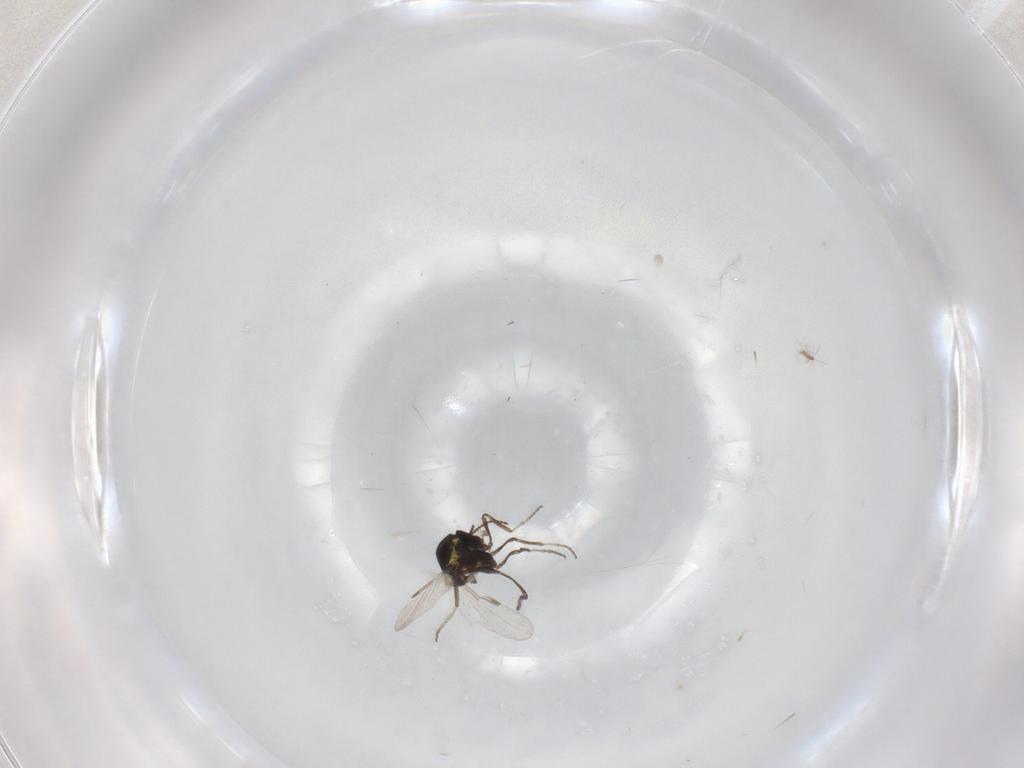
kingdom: Animalia
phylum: Arthropoda
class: Insecta
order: Diptera
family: Ceratopogonidae
